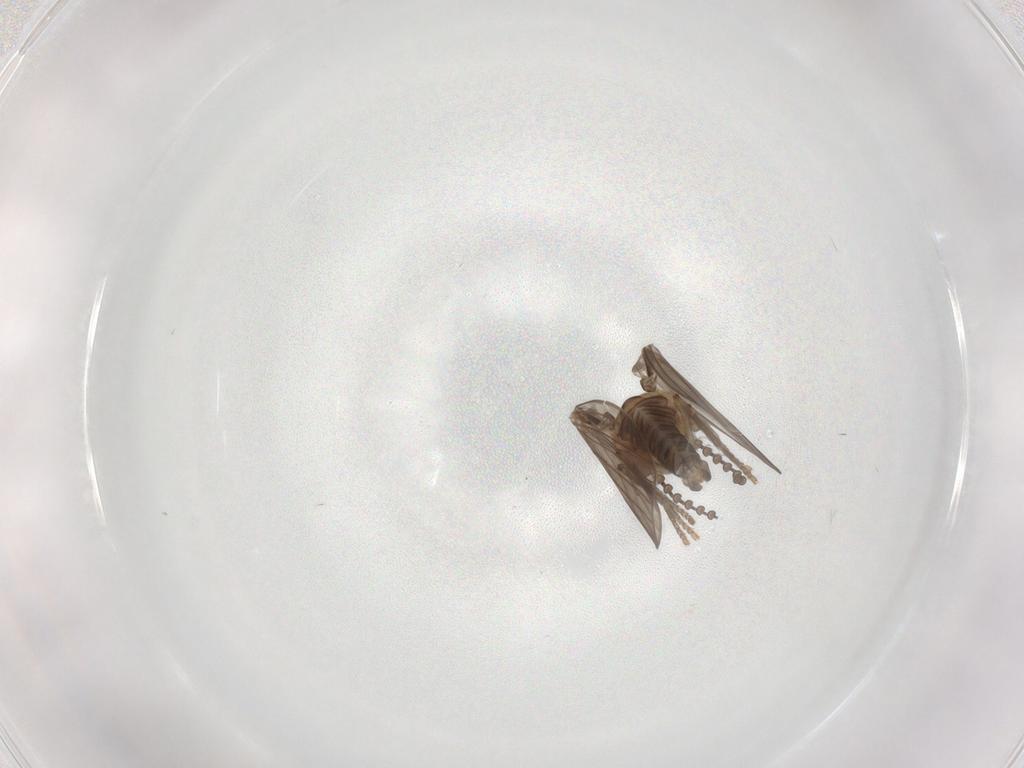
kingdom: Animalia
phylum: Arthropoda
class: Insecta
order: Diptera
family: Psychodidae
